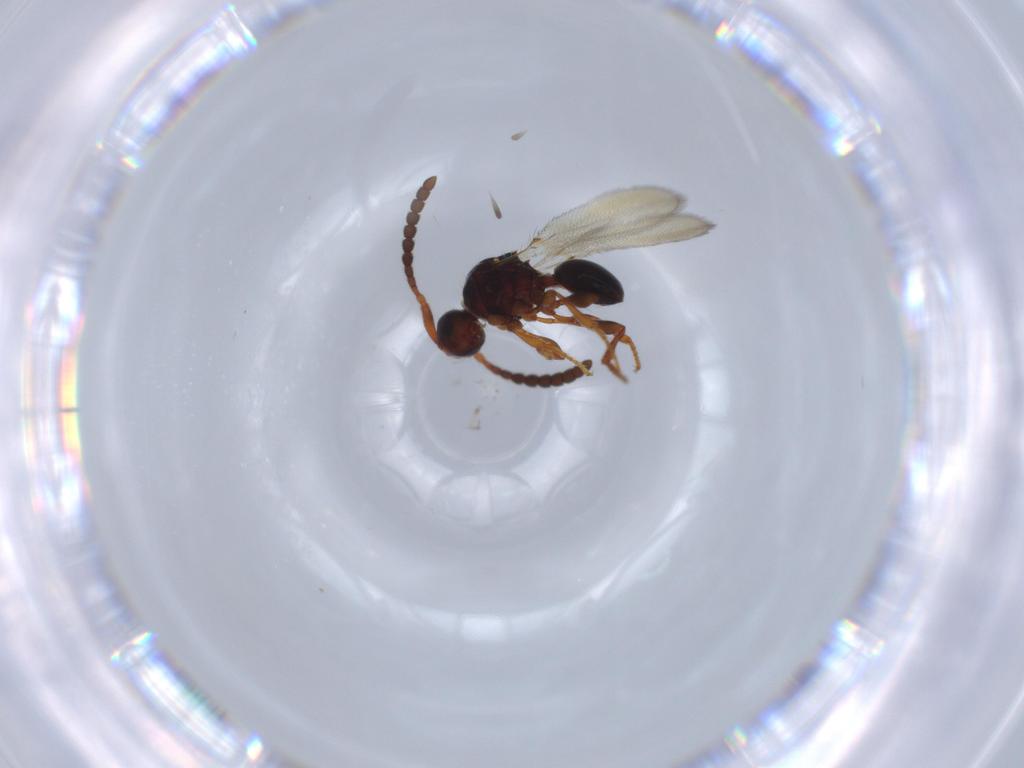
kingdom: Animalia
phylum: Arthropoda
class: Insecta
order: Hymenoptera
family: Diapriidae
